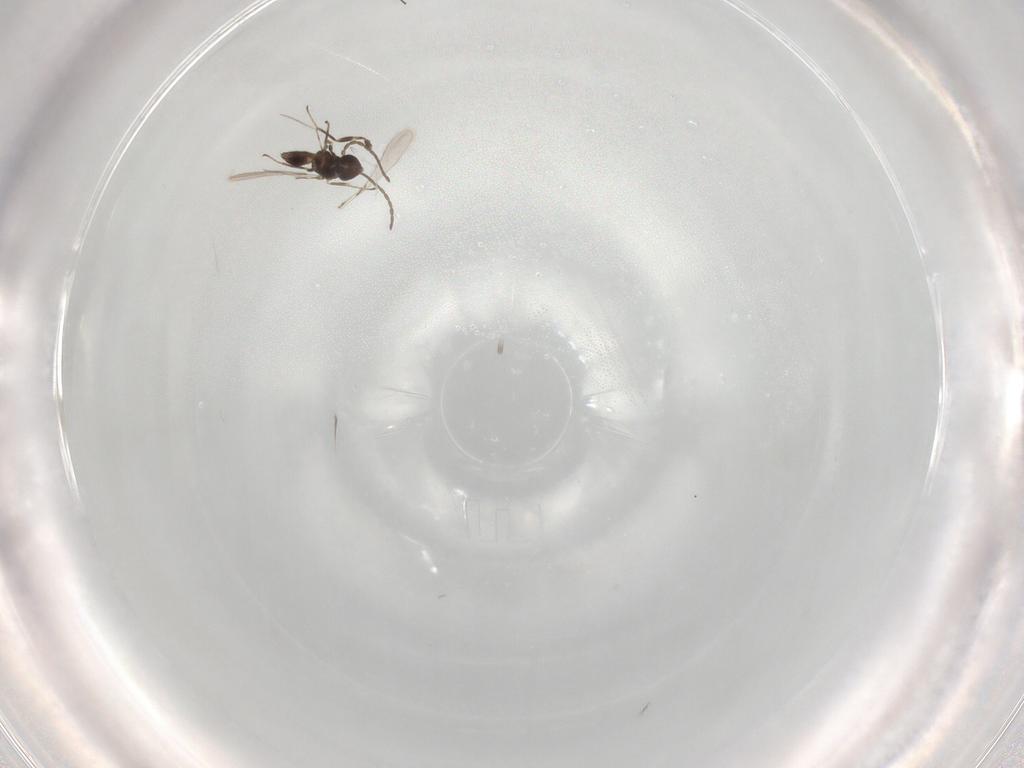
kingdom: Animalia
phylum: Arthropoda
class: Insecta
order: Hymenoptera
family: Mymaridae
